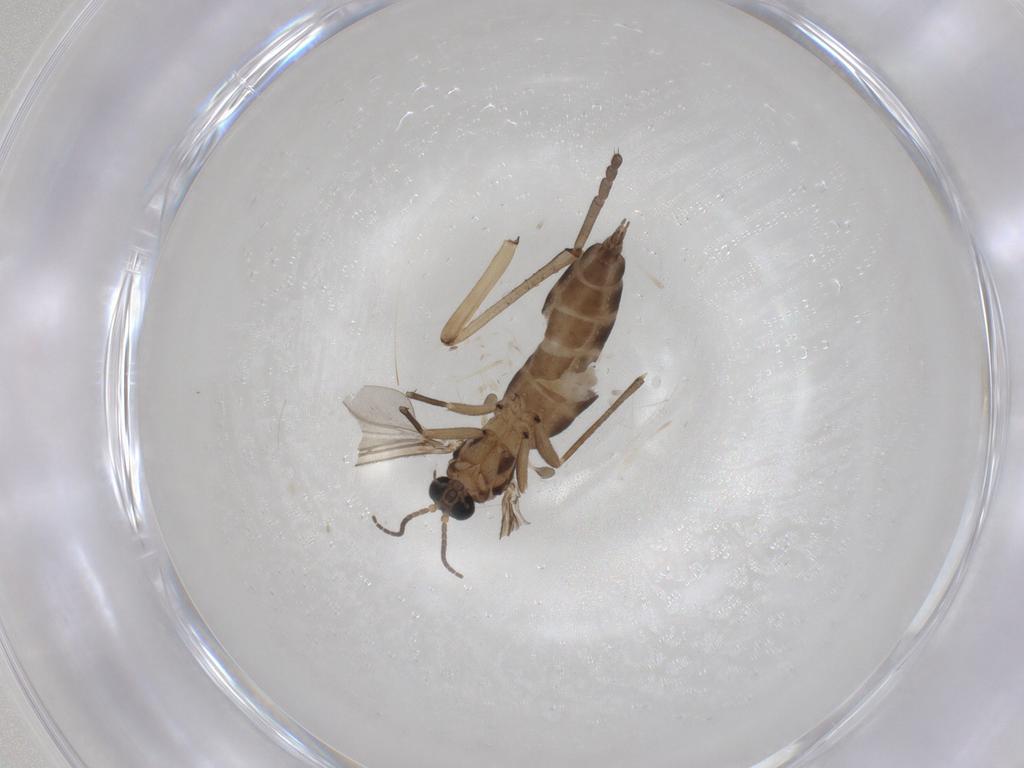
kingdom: Animalia
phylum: Arthropoda
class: Insecta
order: Diptera
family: Psychodidae
